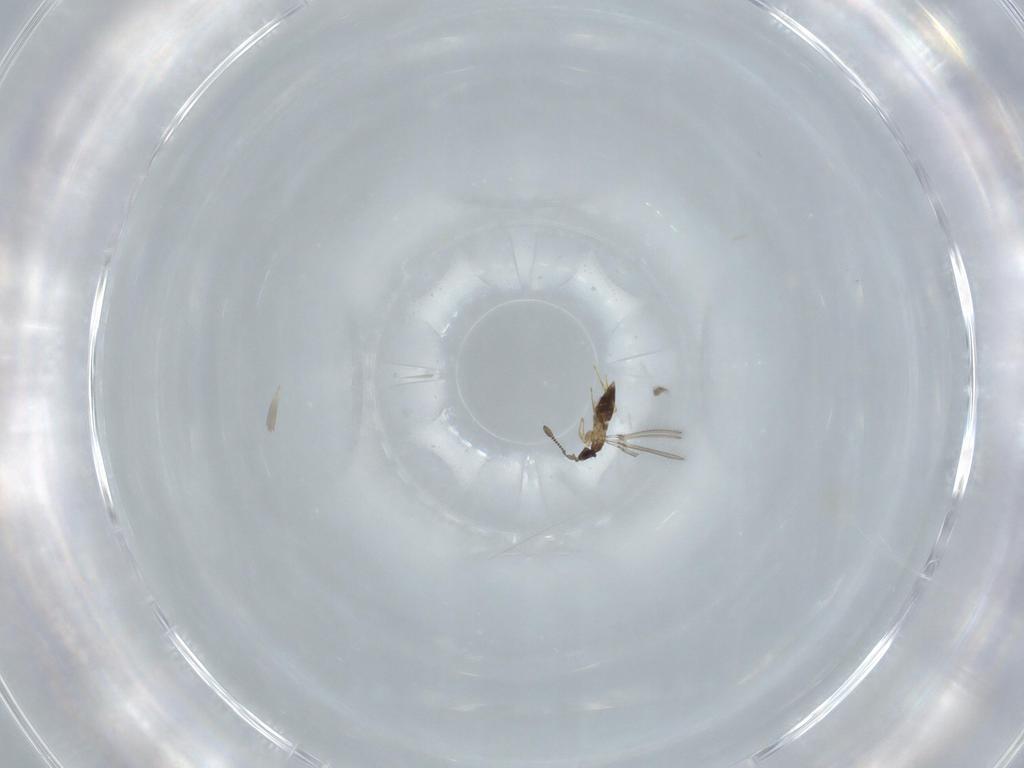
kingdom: Animalia
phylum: Arthropoda
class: Insecta
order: Hymenoptera
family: Mymaridae
